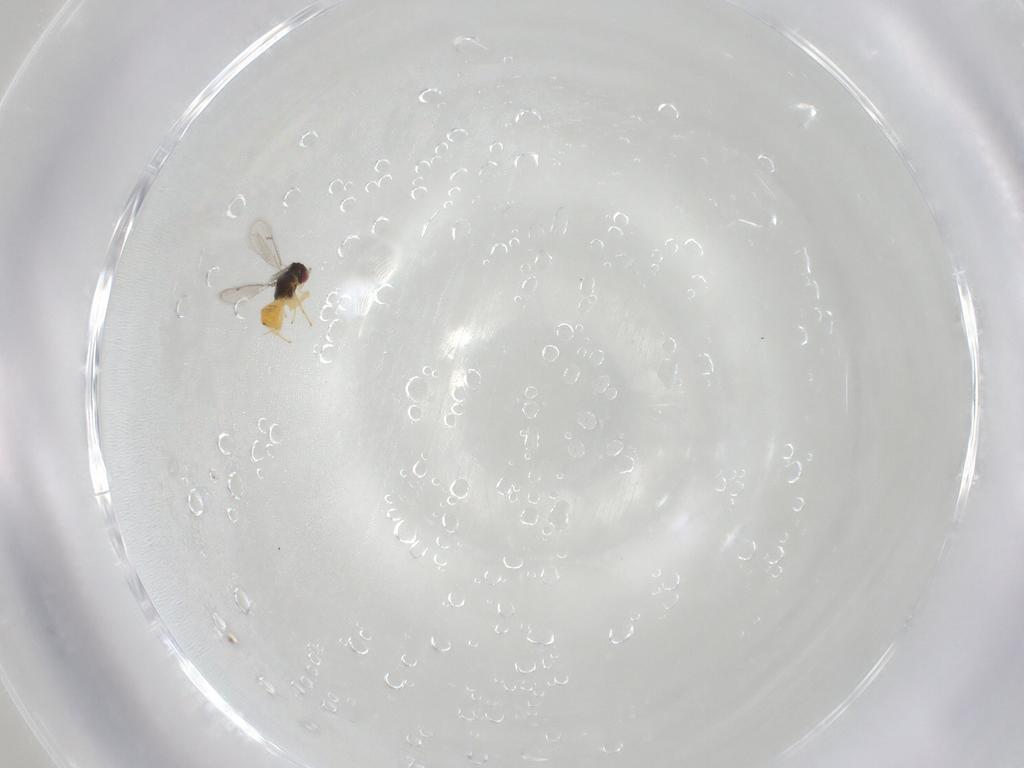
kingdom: Animalia
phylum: Arthropoda
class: Insecta
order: Hymenoptera
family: Eulophidae
